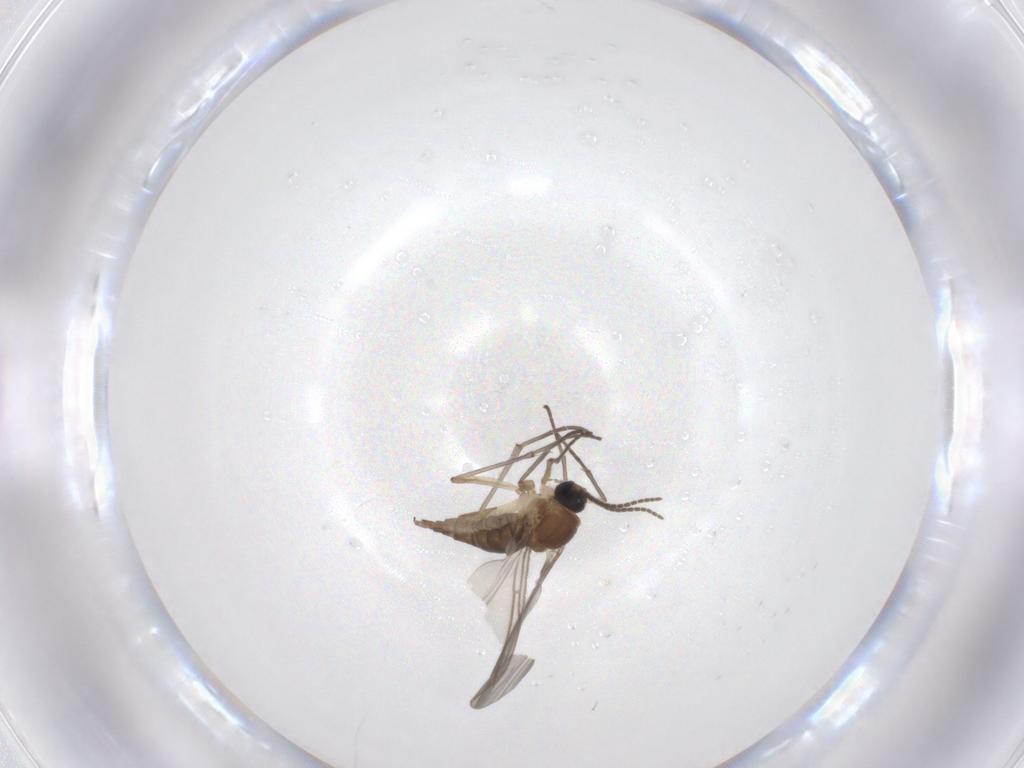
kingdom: Animalia
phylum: Arthropoda
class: Insecta
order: Diptera
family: Sciaridae
